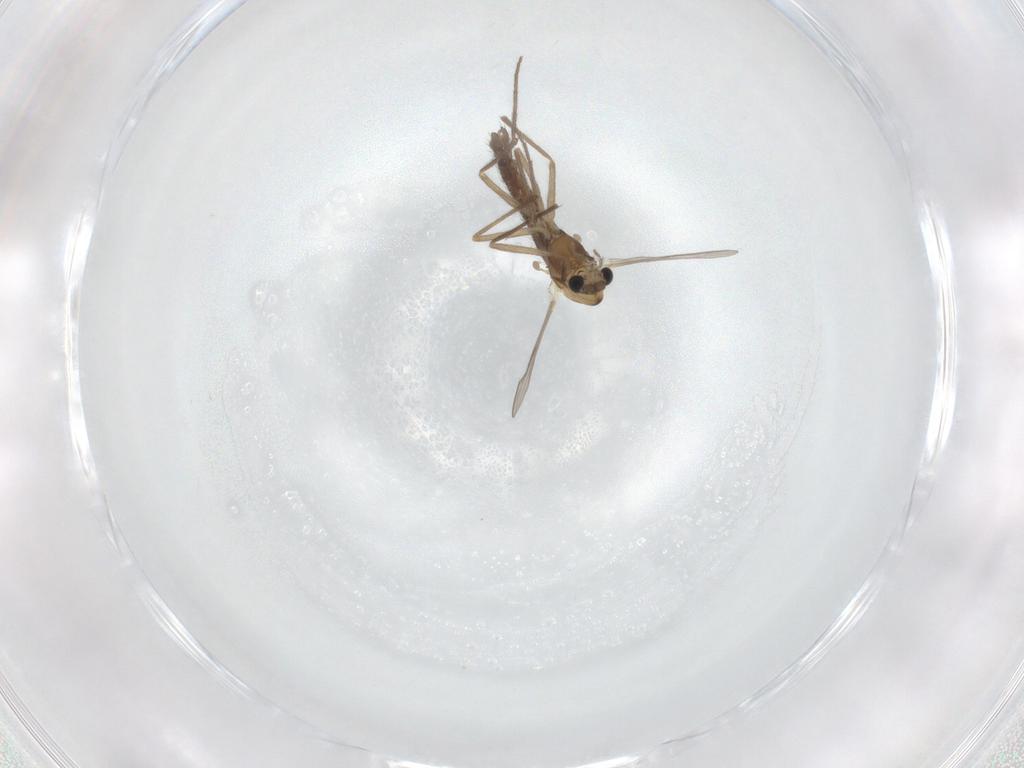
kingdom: Animalia
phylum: Arthropoda
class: Insecta
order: Diptera
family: Chironomidae
